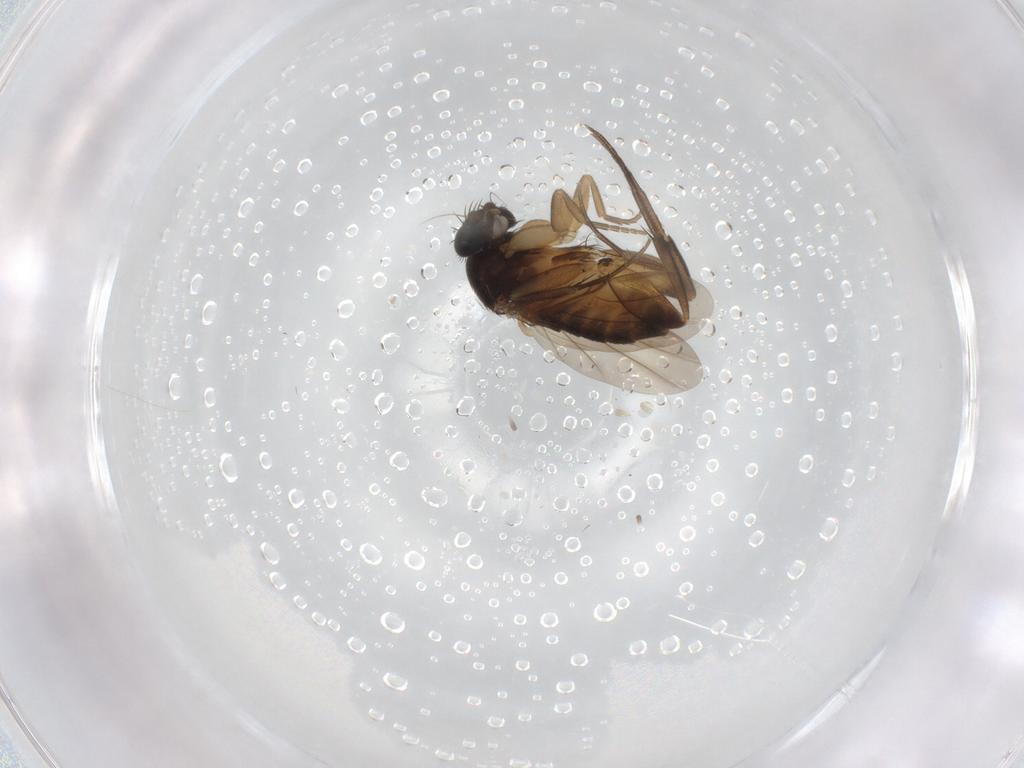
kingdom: Animalia
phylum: Arthropoda
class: Insecta
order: Diptera
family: Phoridae
